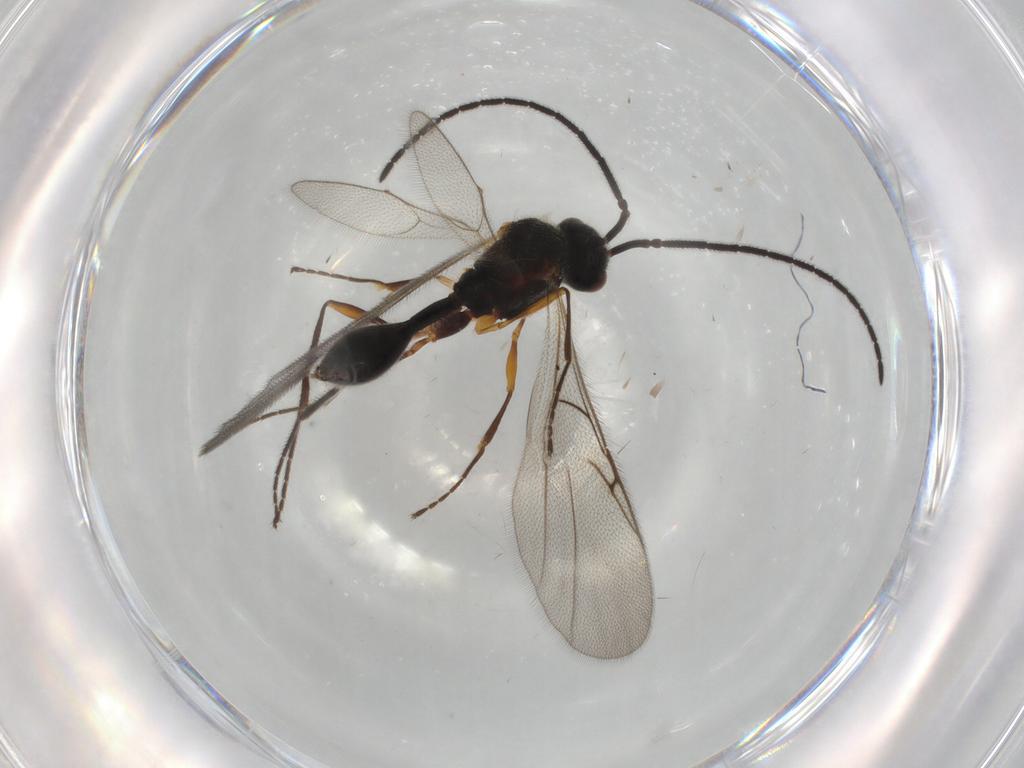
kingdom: Animalia
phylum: Arthropoda
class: Insecta
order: Hymenoptera
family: Diapriidae
